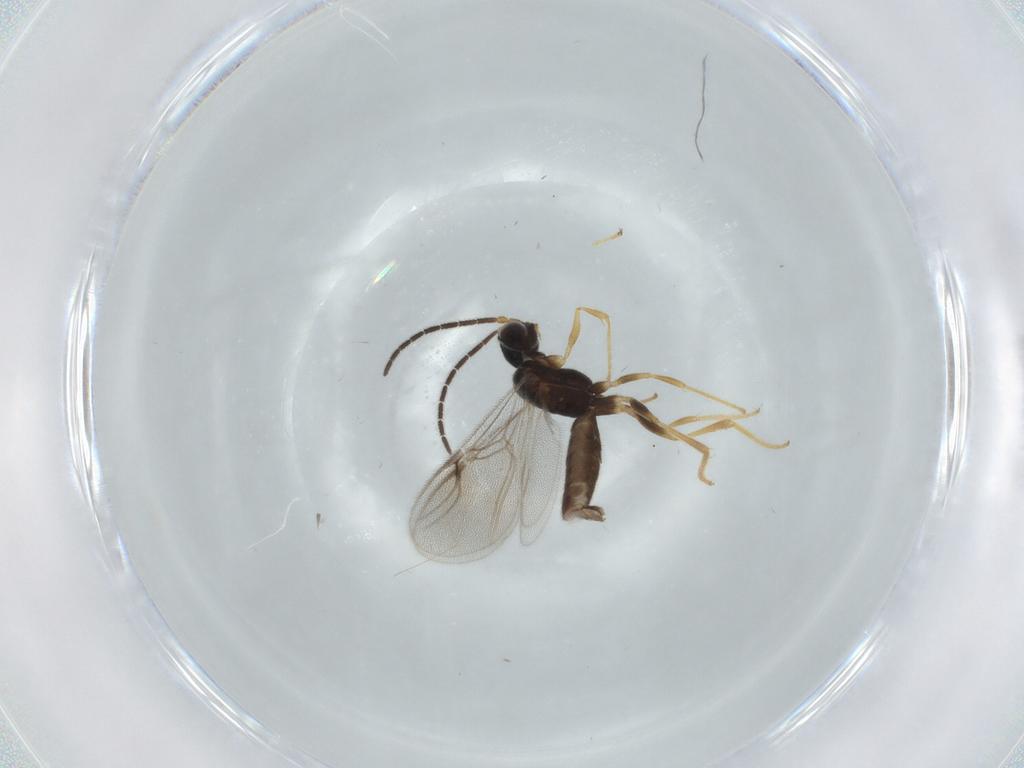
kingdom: Animalia
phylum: Arthropoda
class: Insecta
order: Hymenoptera
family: Dryinidae
